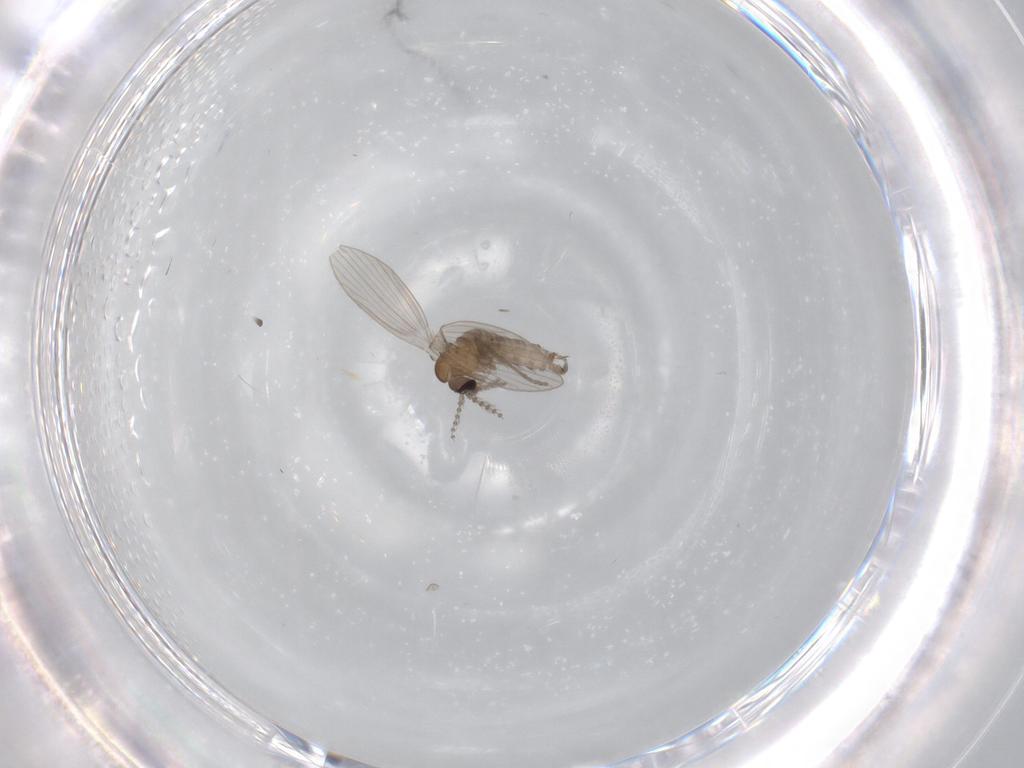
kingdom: Animalia
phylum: Arthropoda
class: Insecta
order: Diptera
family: Psychodidae
